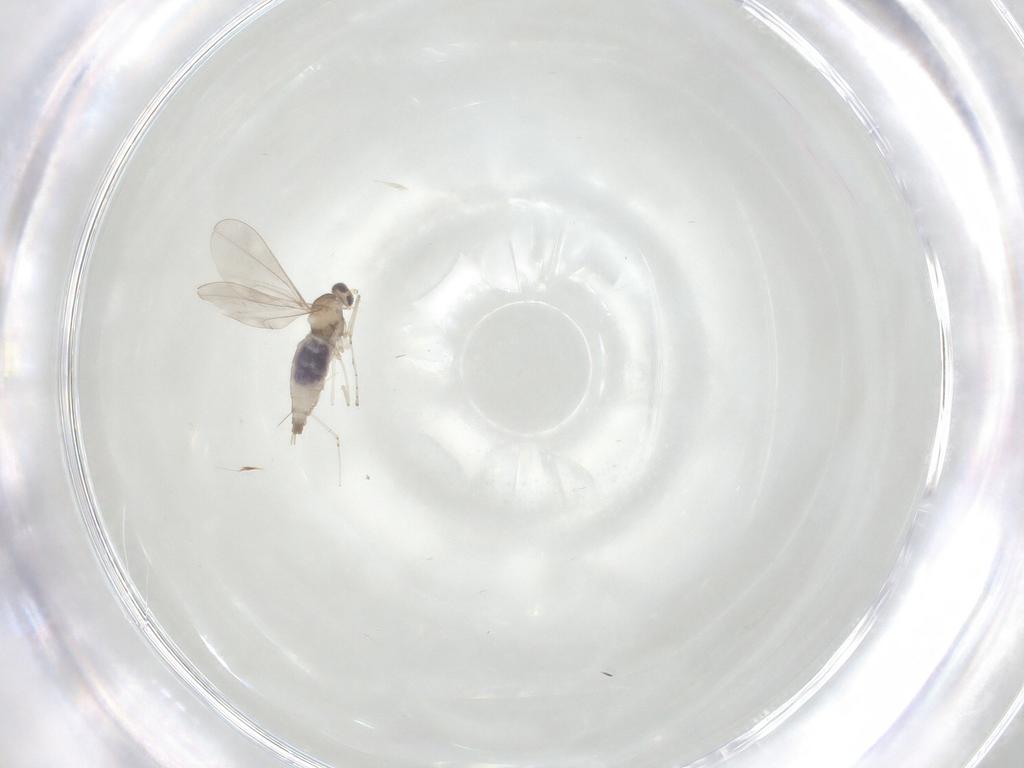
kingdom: Animalia
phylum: Arthropoda
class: Insecta
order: Diptera
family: Cecidomyiidae
